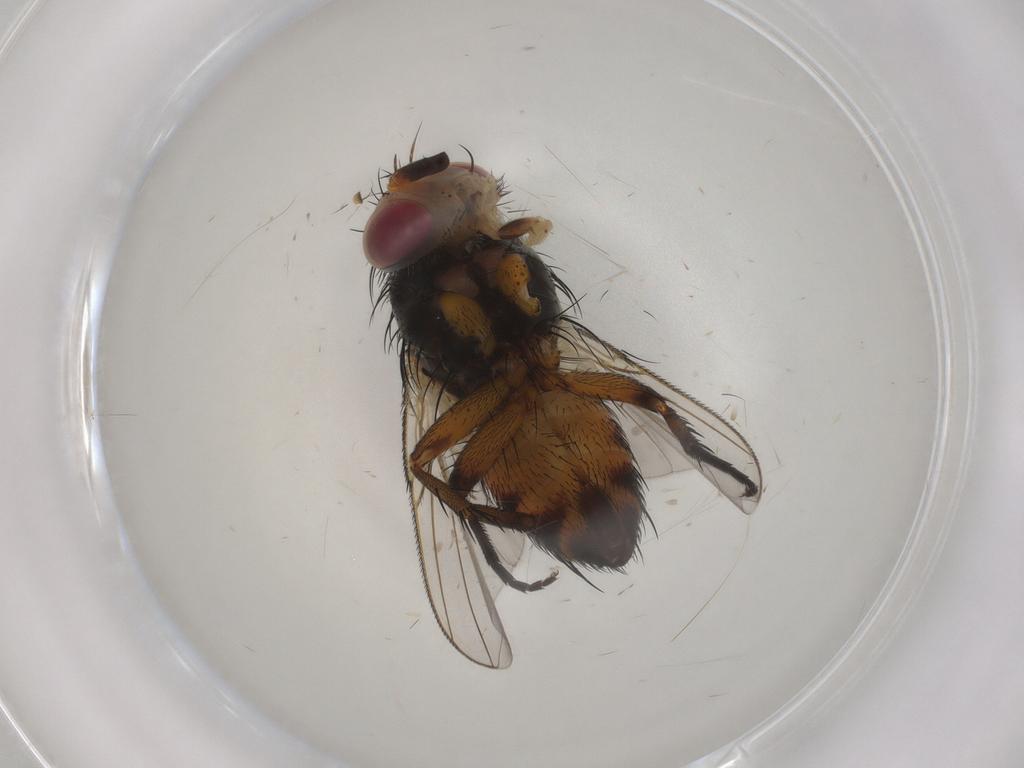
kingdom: Animalia
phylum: Arthropoda
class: Insecta
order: Diptera
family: Ephydridae
